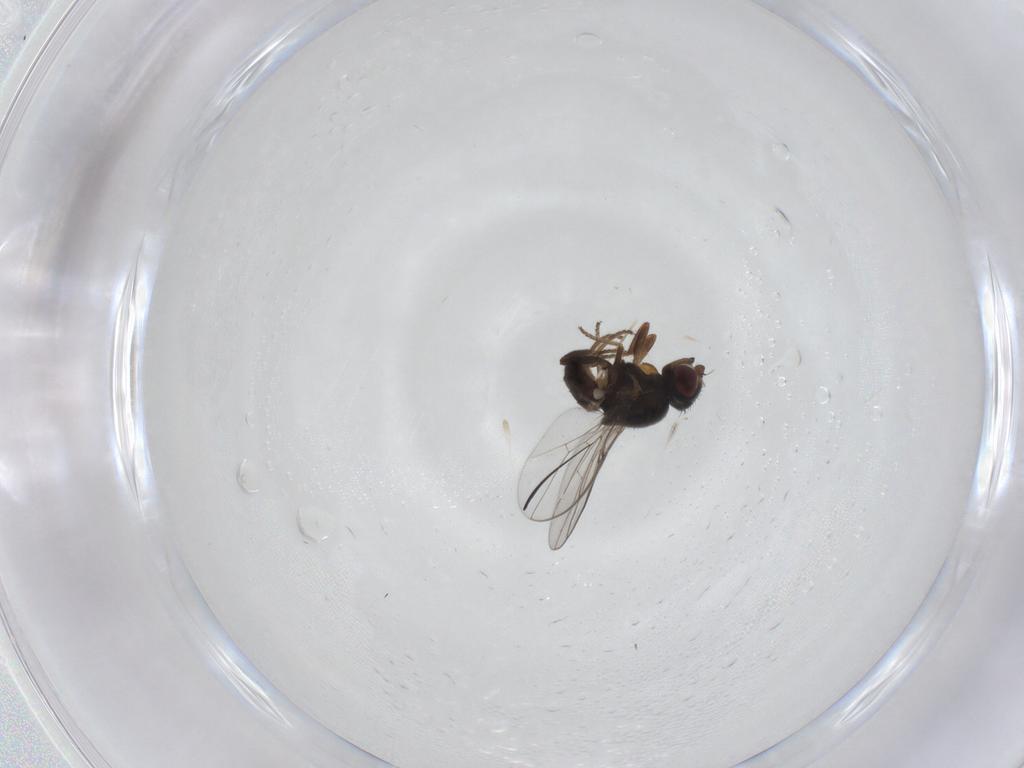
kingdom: Animalia
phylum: Arthropoda
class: Insecta
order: Diptera
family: Chloropidae
